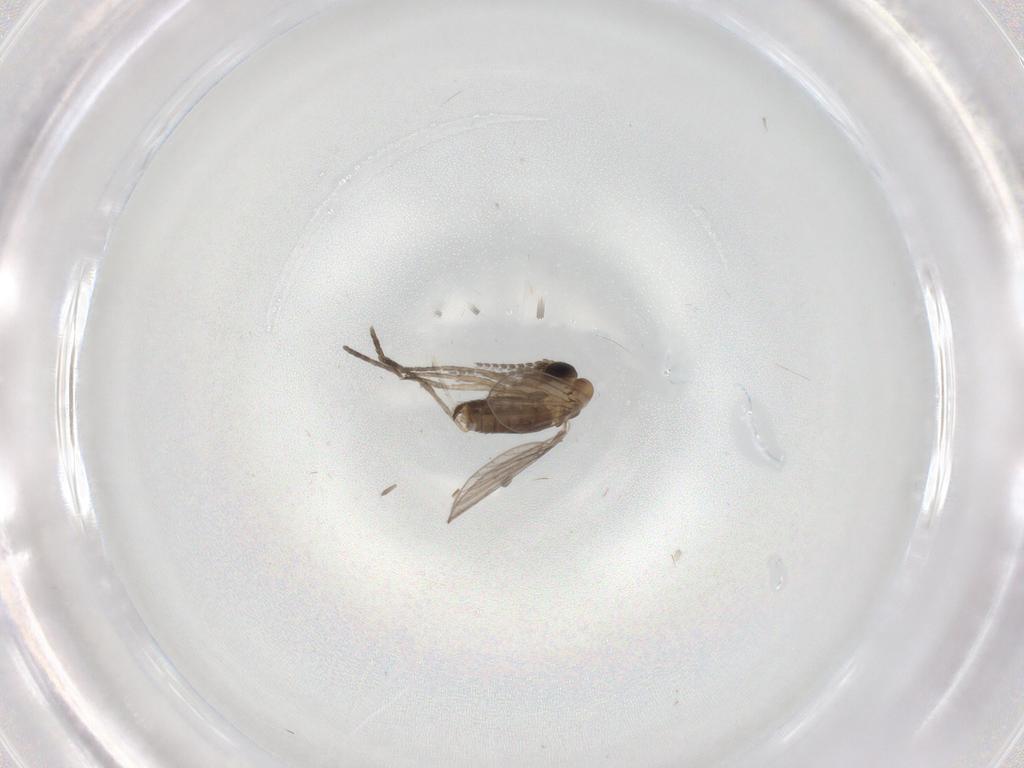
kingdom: Animalia
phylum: Arthropoda
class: Insecta
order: Diptera
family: Psychodidae
